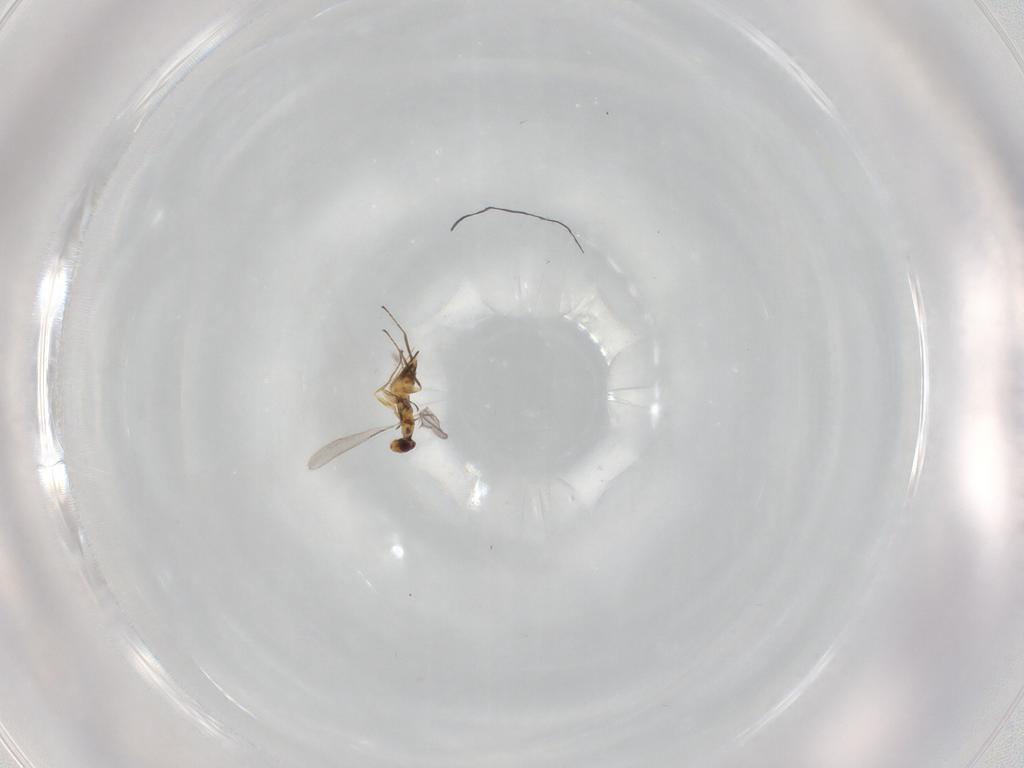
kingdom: Animalia
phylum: Arthropoda
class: Insecta
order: Hymenoptera
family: Mymaridae
